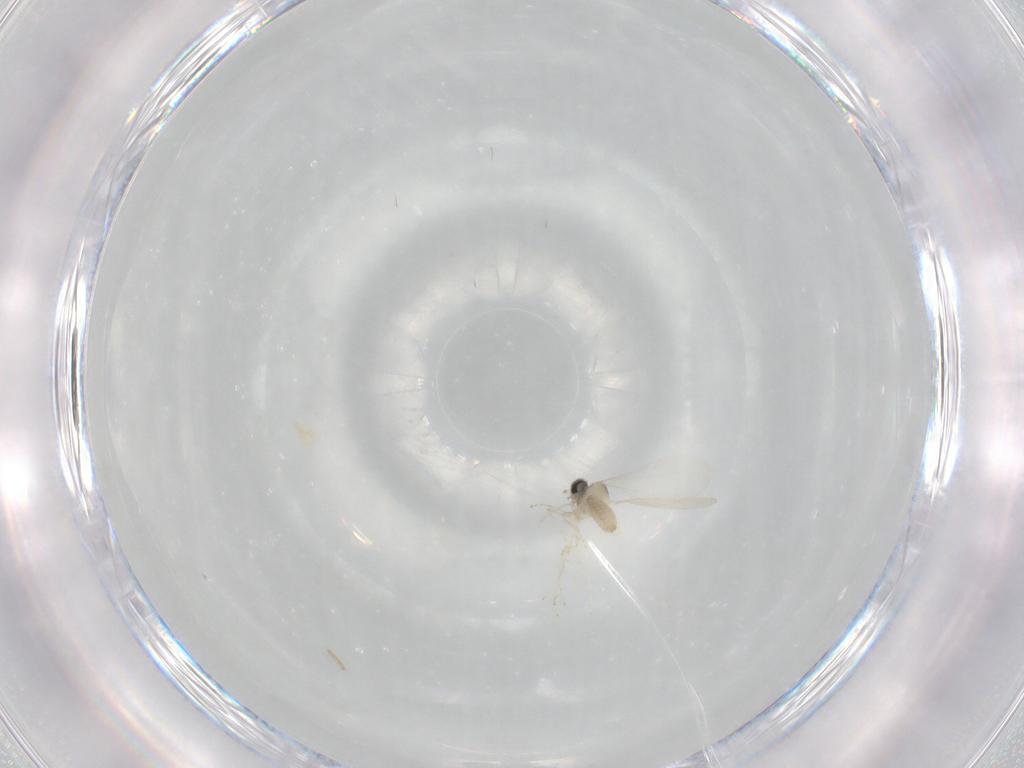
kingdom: Animalia
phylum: Arthropoda
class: Insecta
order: Diptera
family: Cecidomyiidae
